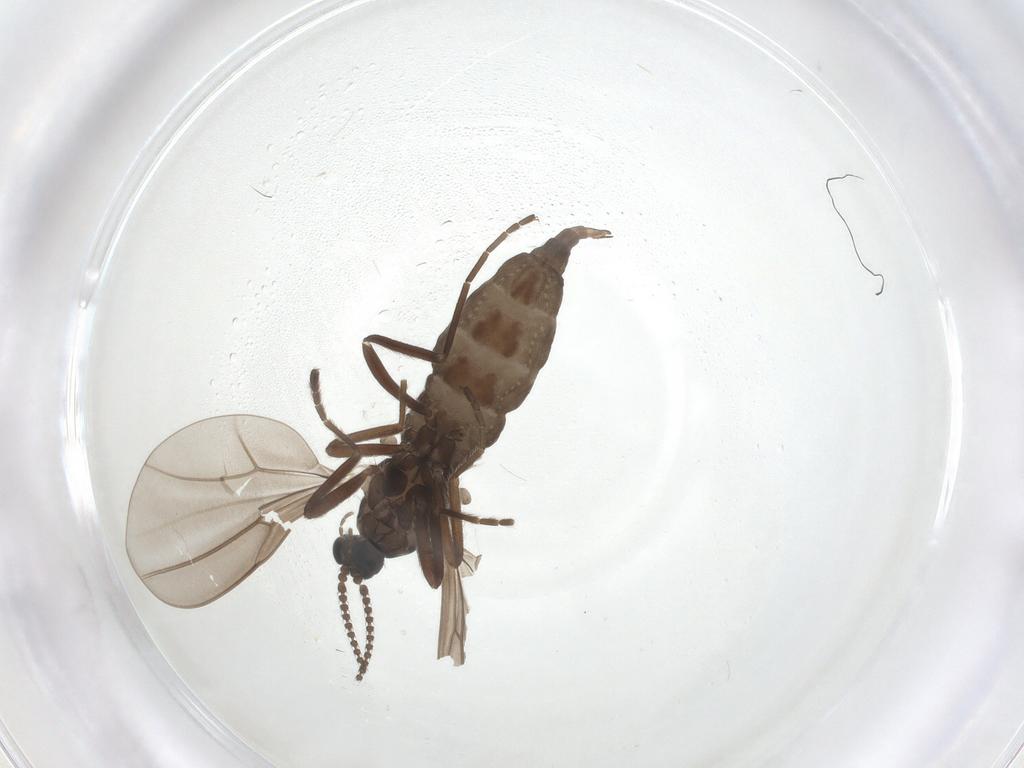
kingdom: Animalia
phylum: Arthropoda
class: Insecta
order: Diptera
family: Cecidomyiidae
